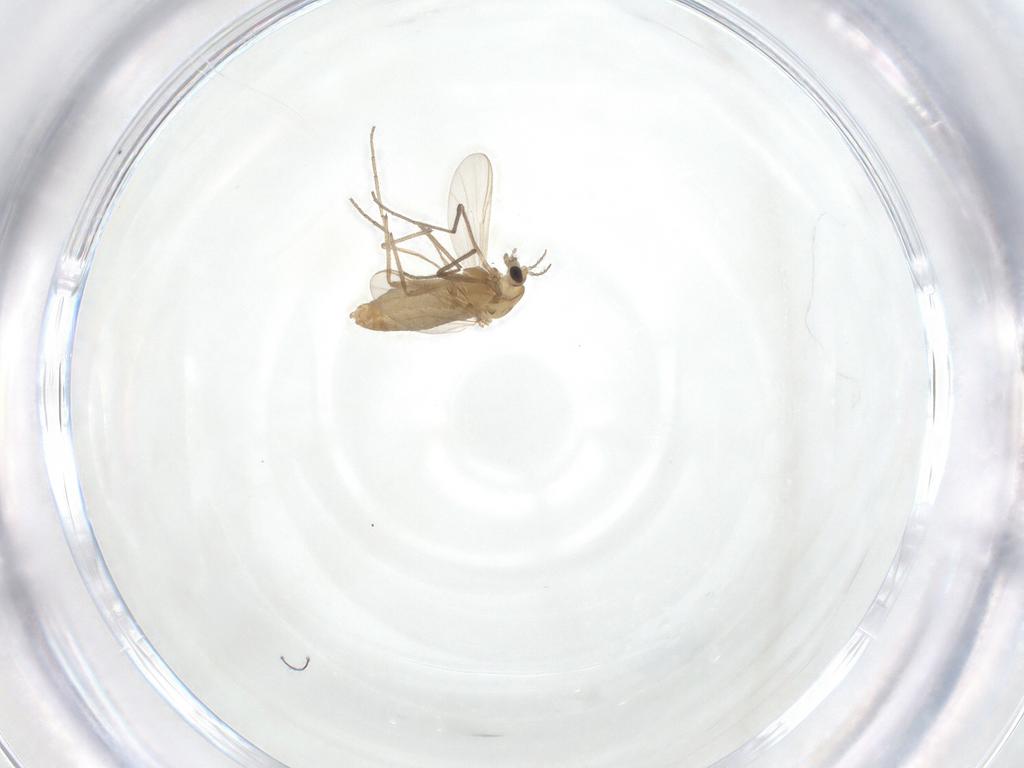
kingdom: Animalia
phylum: Arthropoda
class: Insecta
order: Diptera
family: Chironomidae
